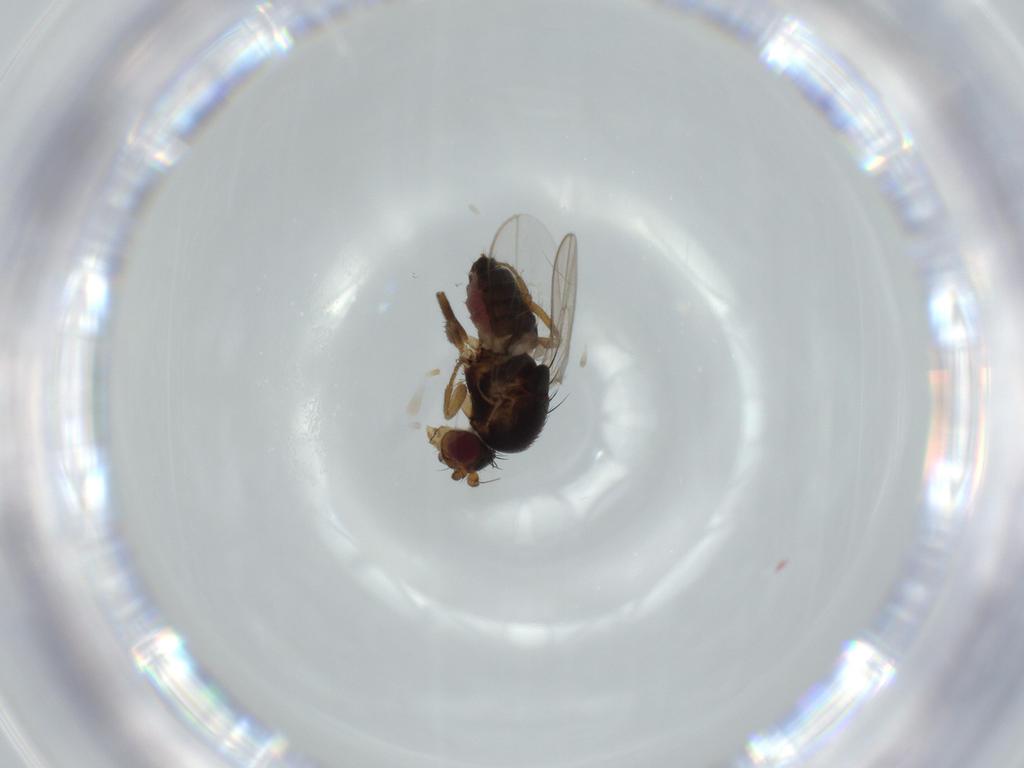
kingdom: Animalia
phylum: Arthropoda
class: Insecta
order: Diptera
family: Sphaeroceridae
